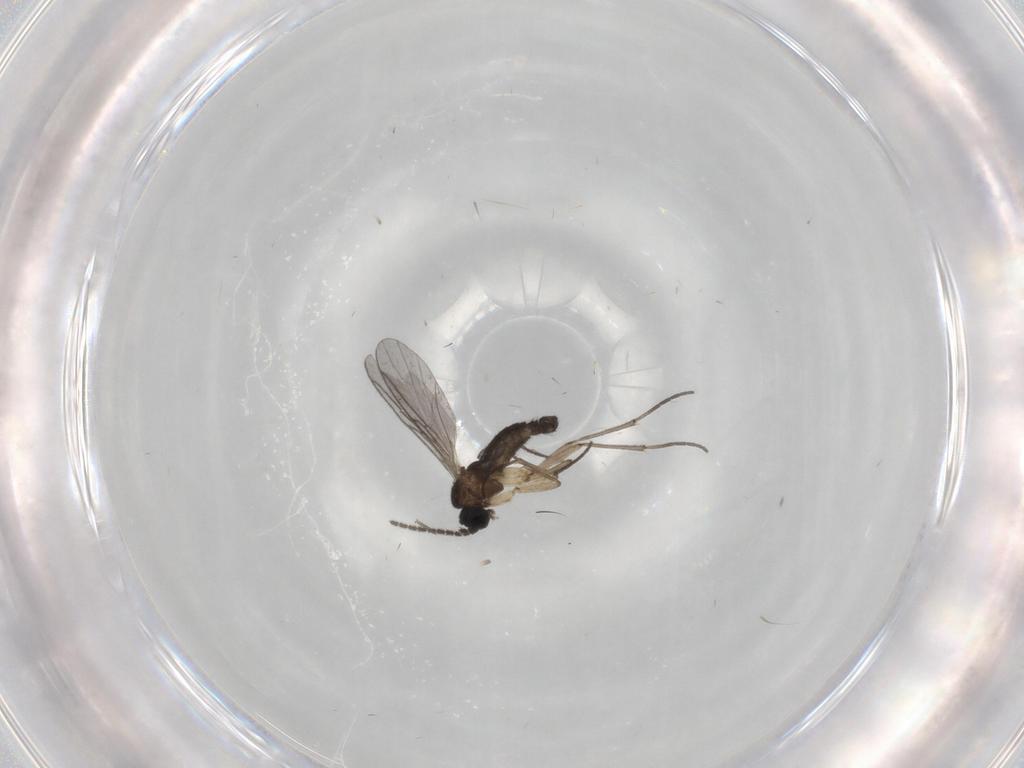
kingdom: Animalia
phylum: Arthropoda
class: Insecta
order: Diptera
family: Sciaridae
